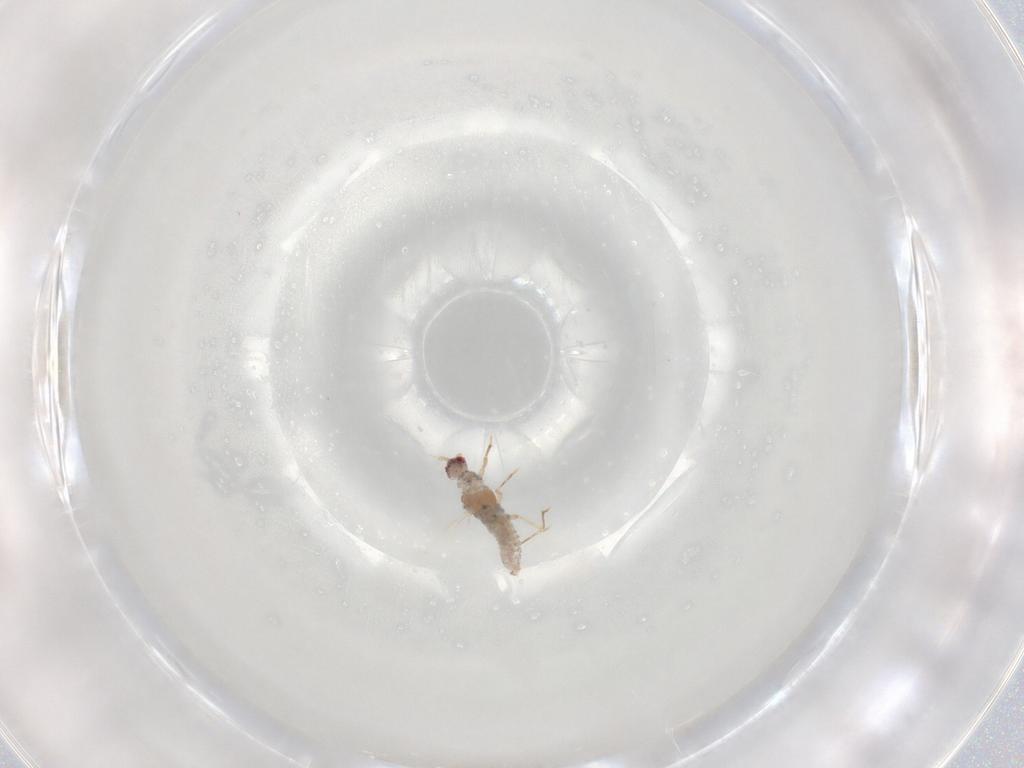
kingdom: Animalia
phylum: Arthropoda
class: Insecta
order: Hemiptera
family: Pseudococcidae
